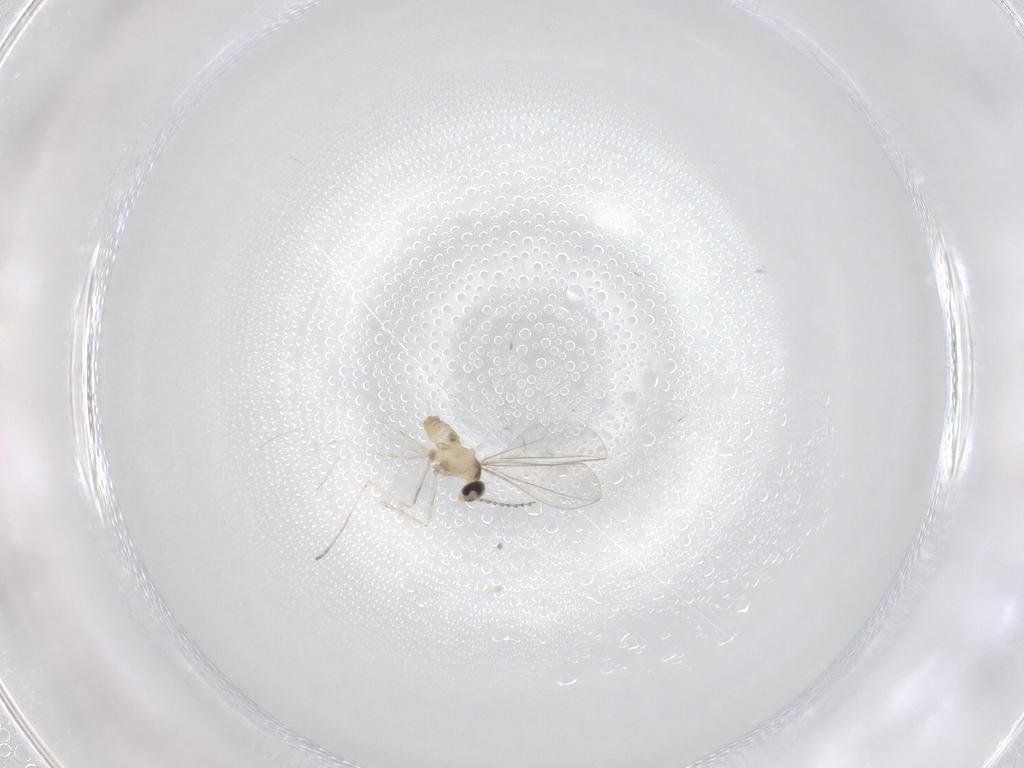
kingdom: Animalia
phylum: Arthropoda
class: Insecta
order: Diptera
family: Cecidomyiidae
